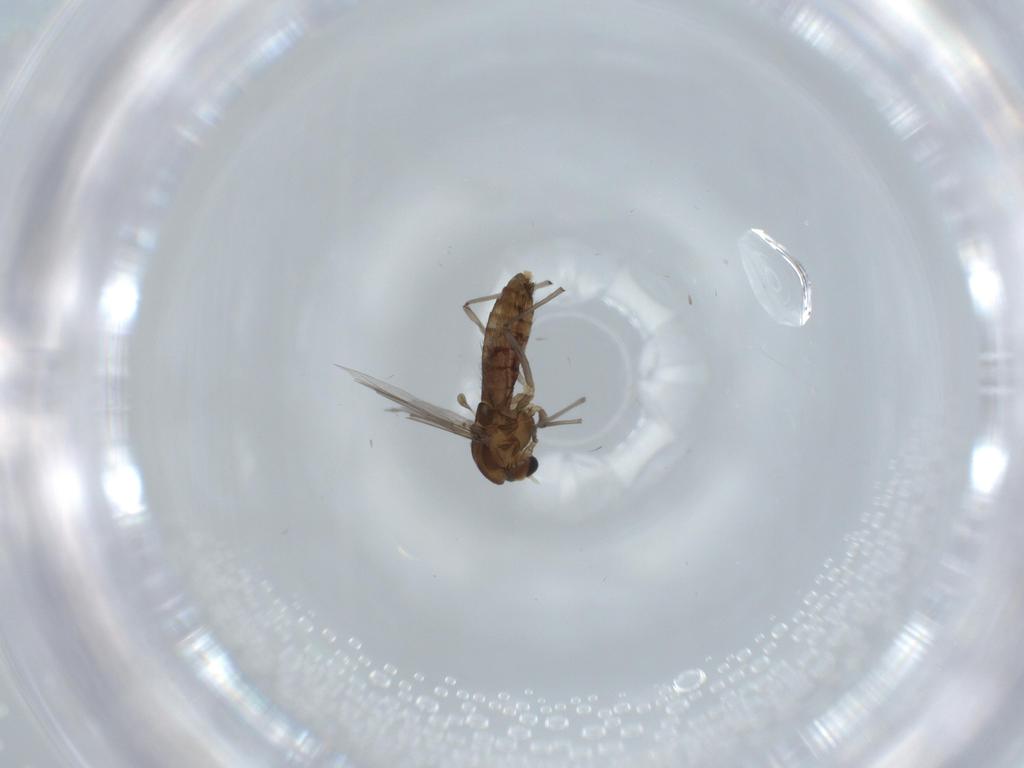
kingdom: Animalia
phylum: Arthropoda
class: Insecta
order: Diptera
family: Chironomidae
